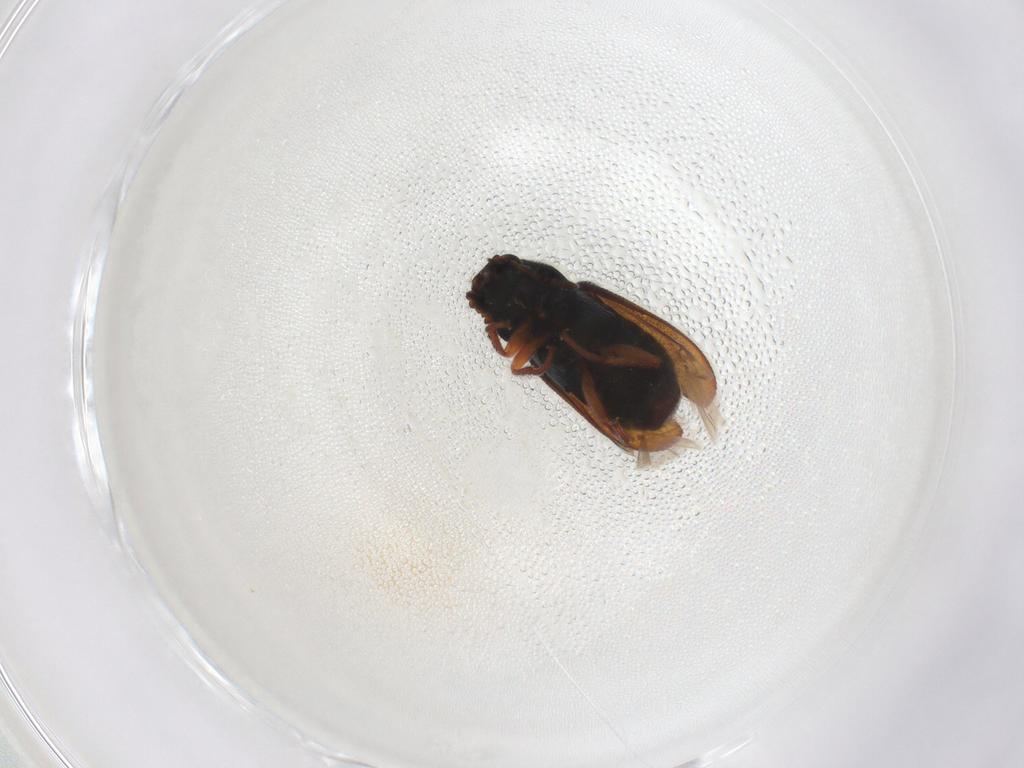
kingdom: Animalia
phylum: Arthropoda
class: Insecta
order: Coleoptera
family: Melyridae
